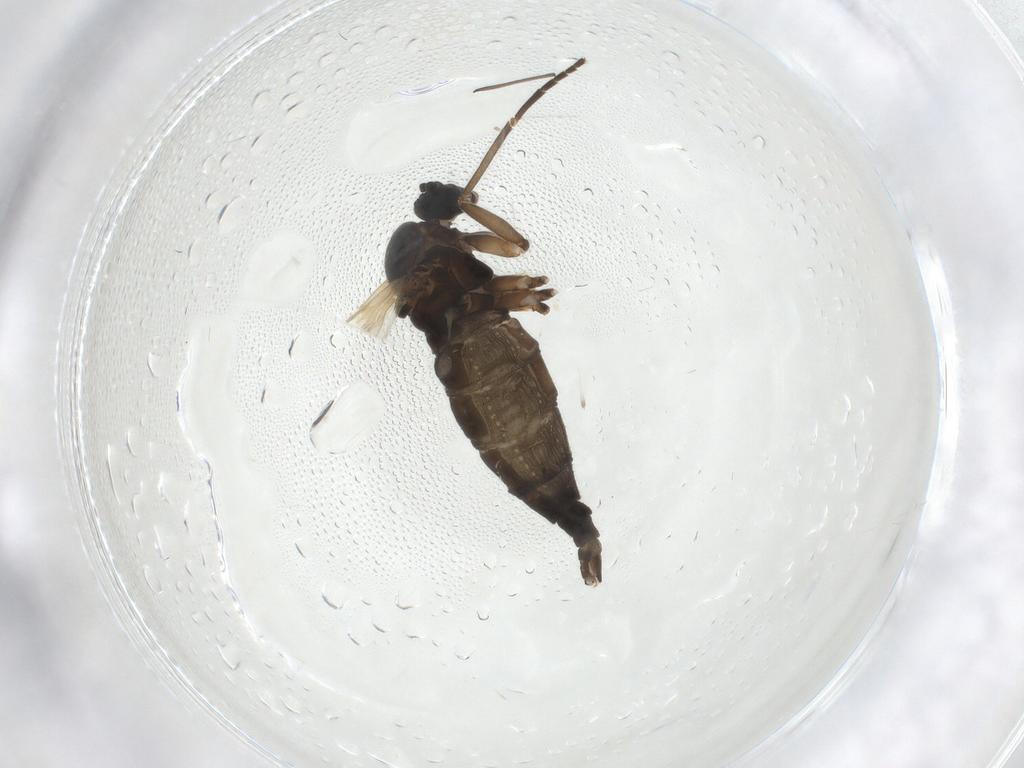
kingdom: Animalia
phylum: Arthropoda
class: Insecta
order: Diptera
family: Sciaridae
